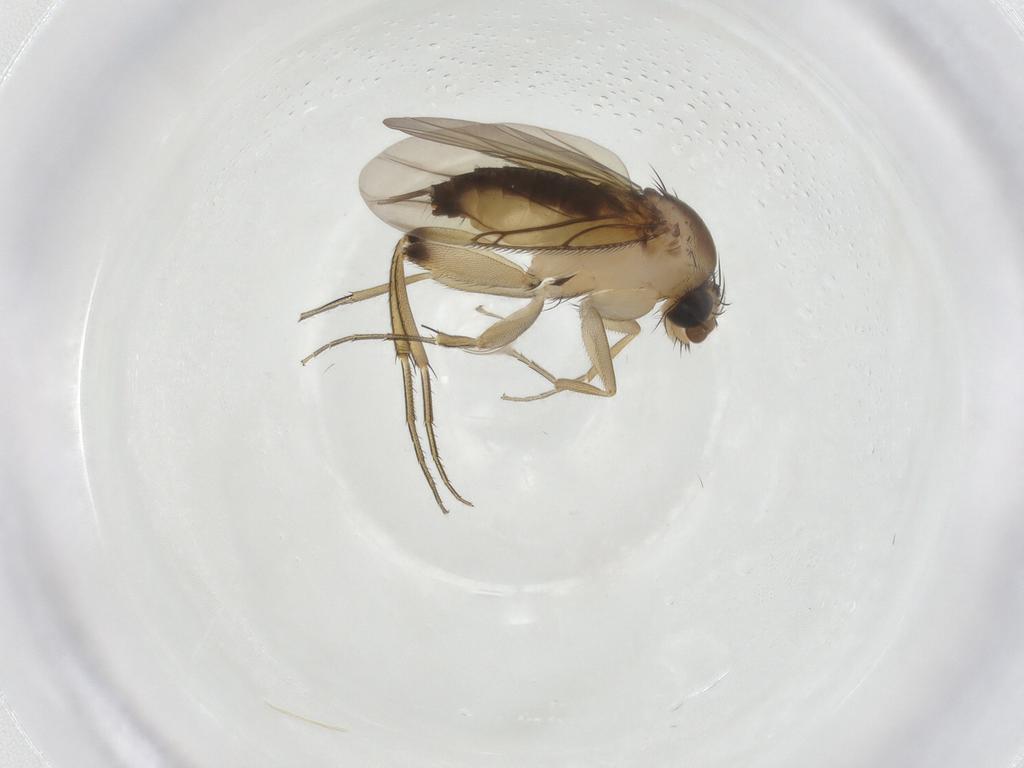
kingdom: Animalia
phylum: Arthropoda
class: Insecta
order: Diptera
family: Phoridae
